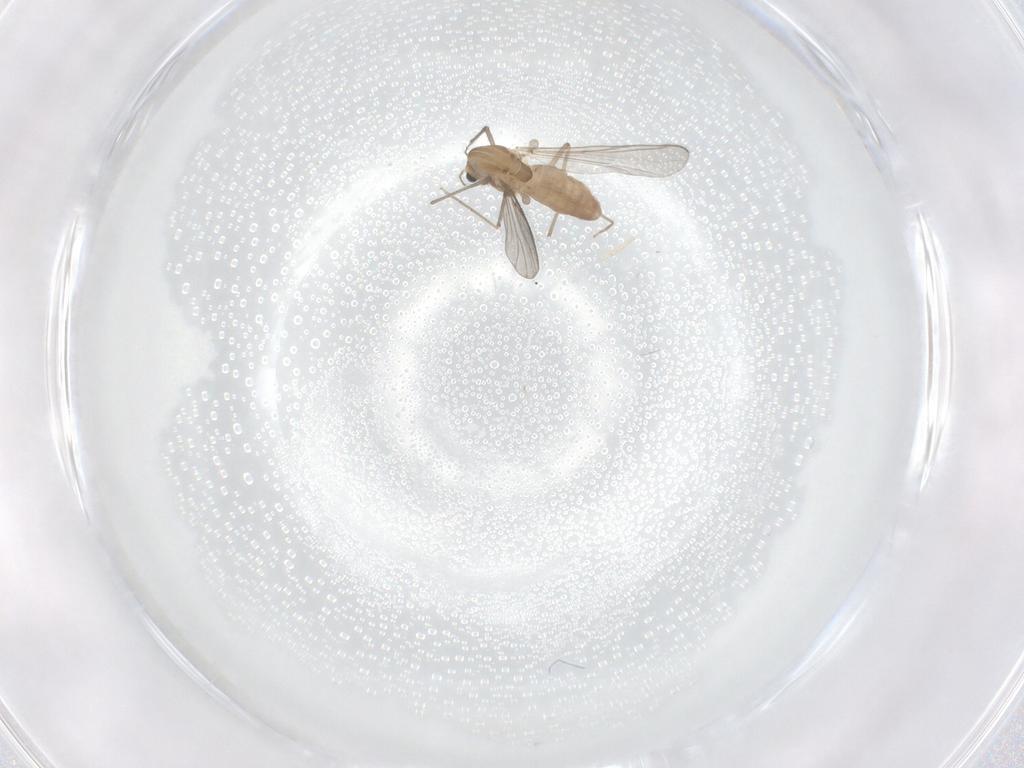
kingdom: Animalia
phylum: Arthropoda
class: Insecta
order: Diptera
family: Chironomidae
